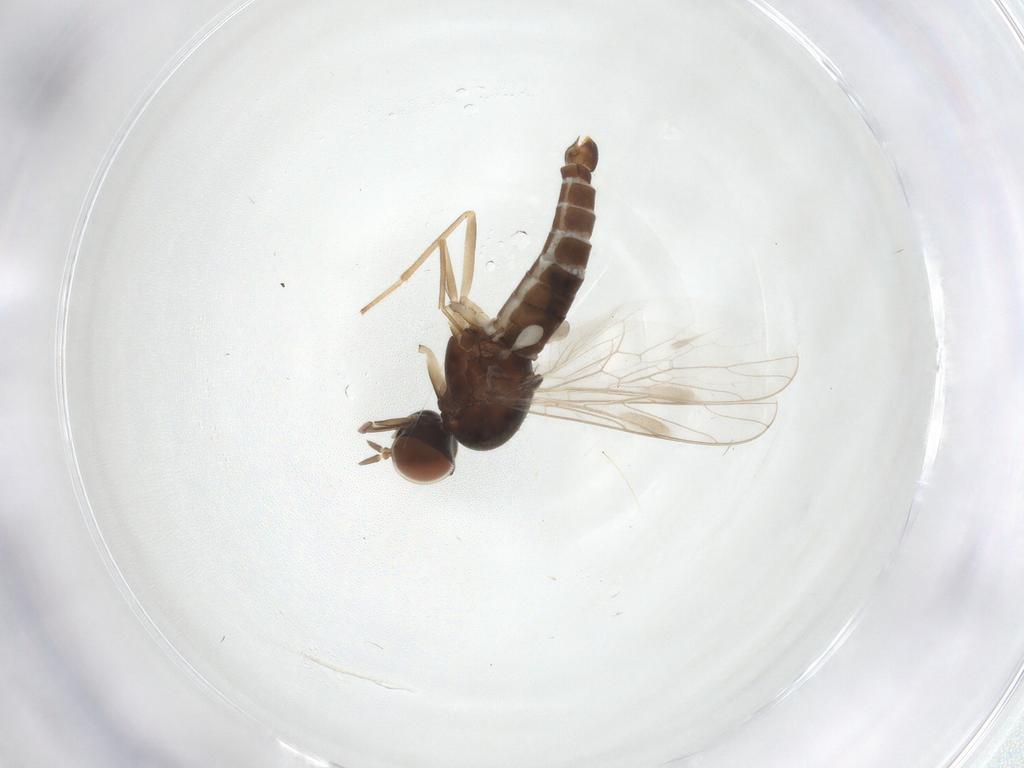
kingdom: Animalia
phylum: Arthropoda
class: Insecta
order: Diptera
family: Scenopinidae
